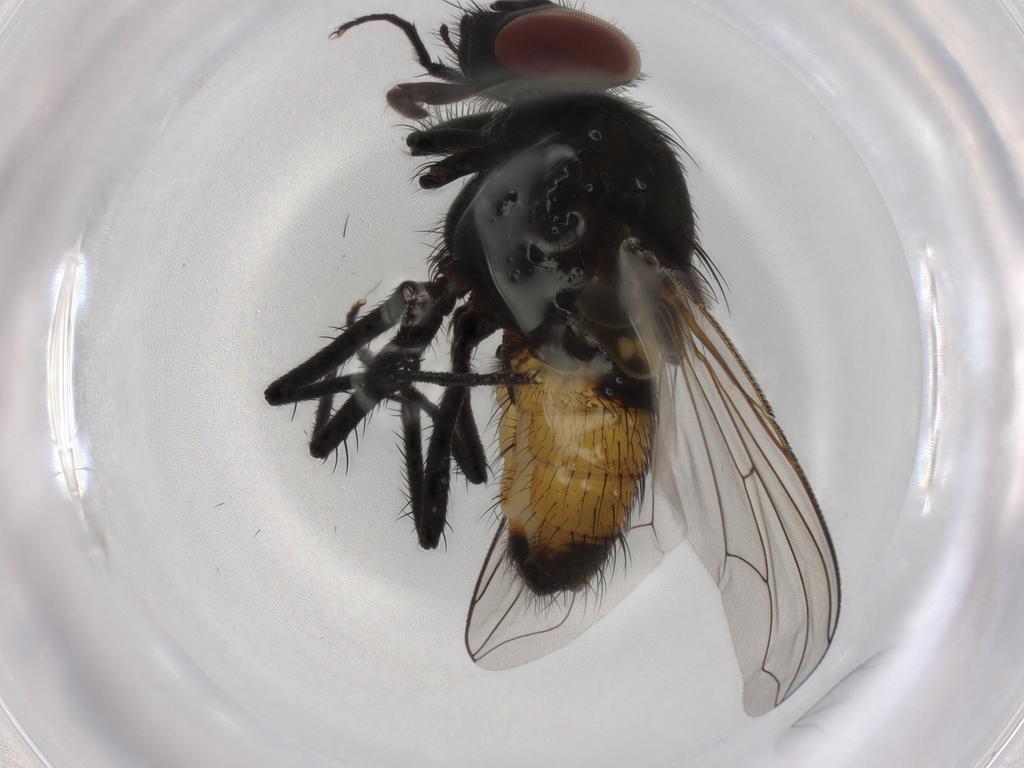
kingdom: Animalia
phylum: Arthropoda
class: Insecta
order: Diptera
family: Muscidae
